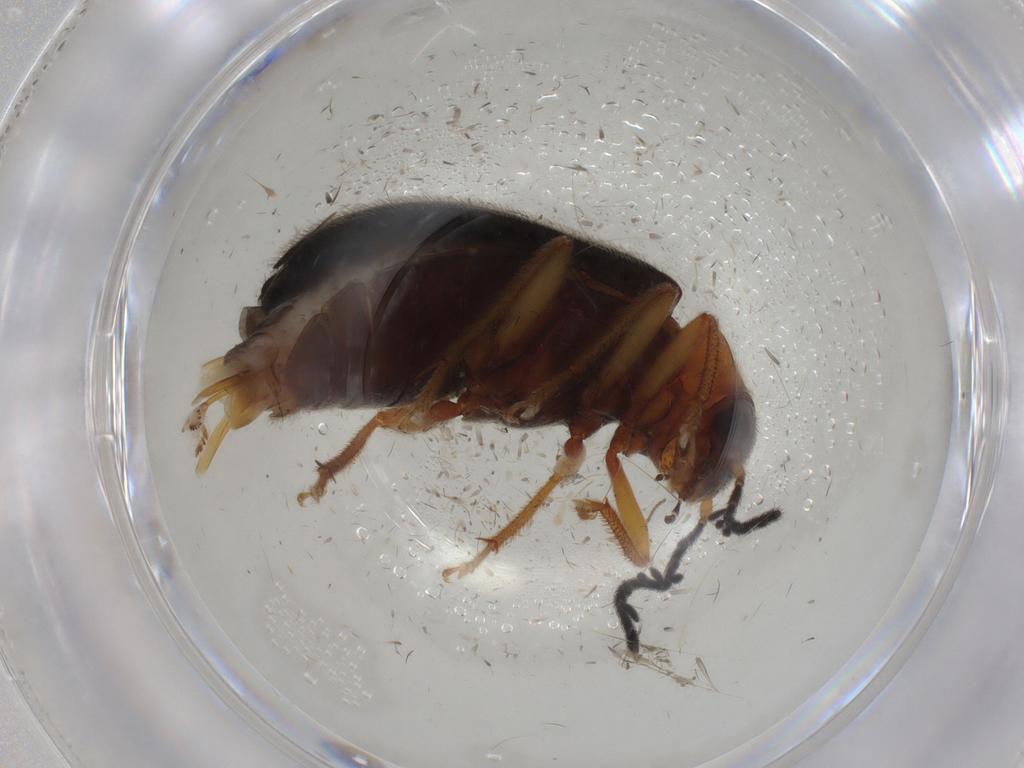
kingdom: Animalia
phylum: Arthropoda
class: Insecta
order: Coleoptera
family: Ptilodactylidae
